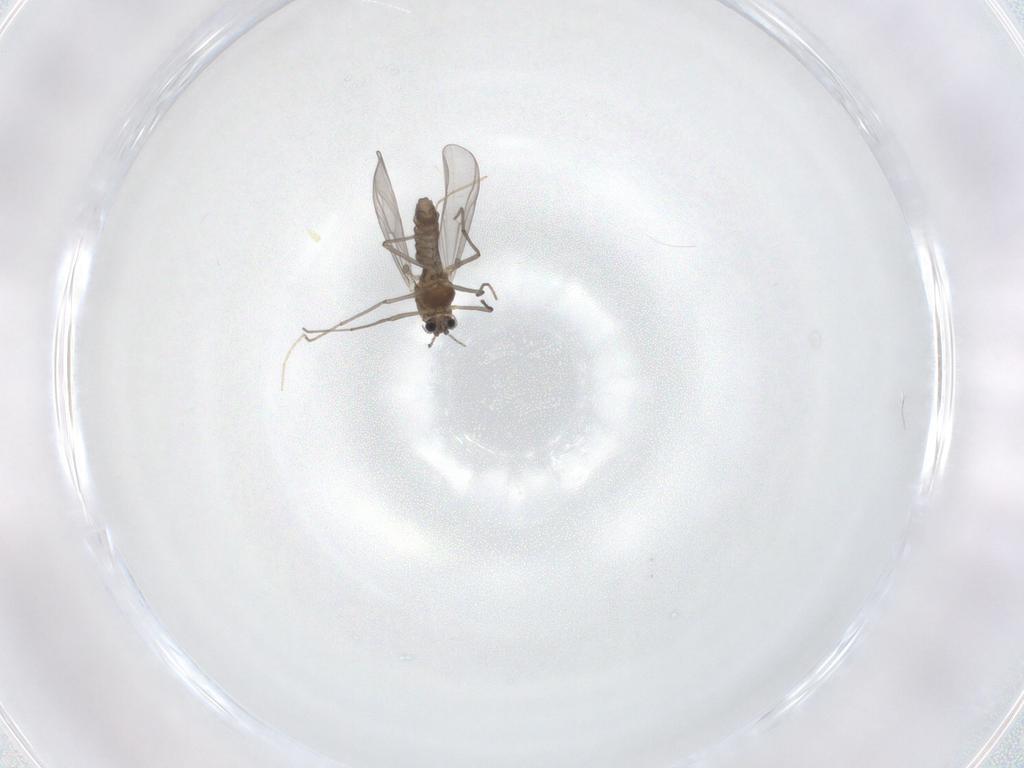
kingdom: Animalia
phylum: Arthropoda
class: Insecta
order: Diptera
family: Chironomidae
